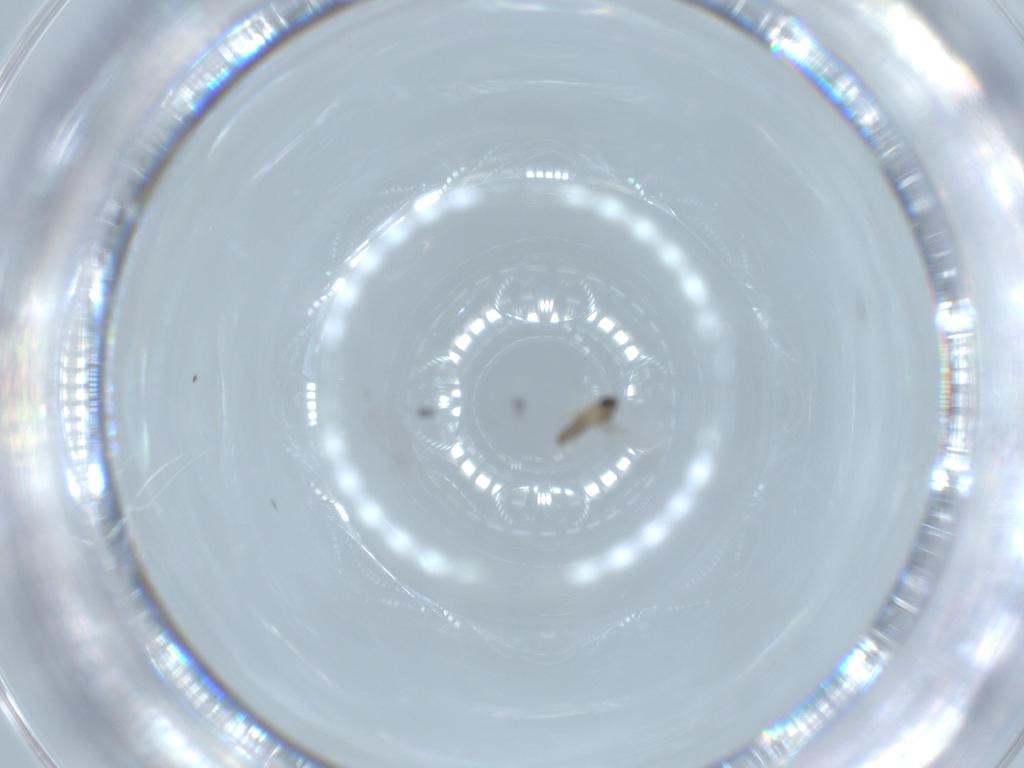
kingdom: Animalia
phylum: Arthropoda
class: Insecta
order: Diptera
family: Cecidomyiidae
